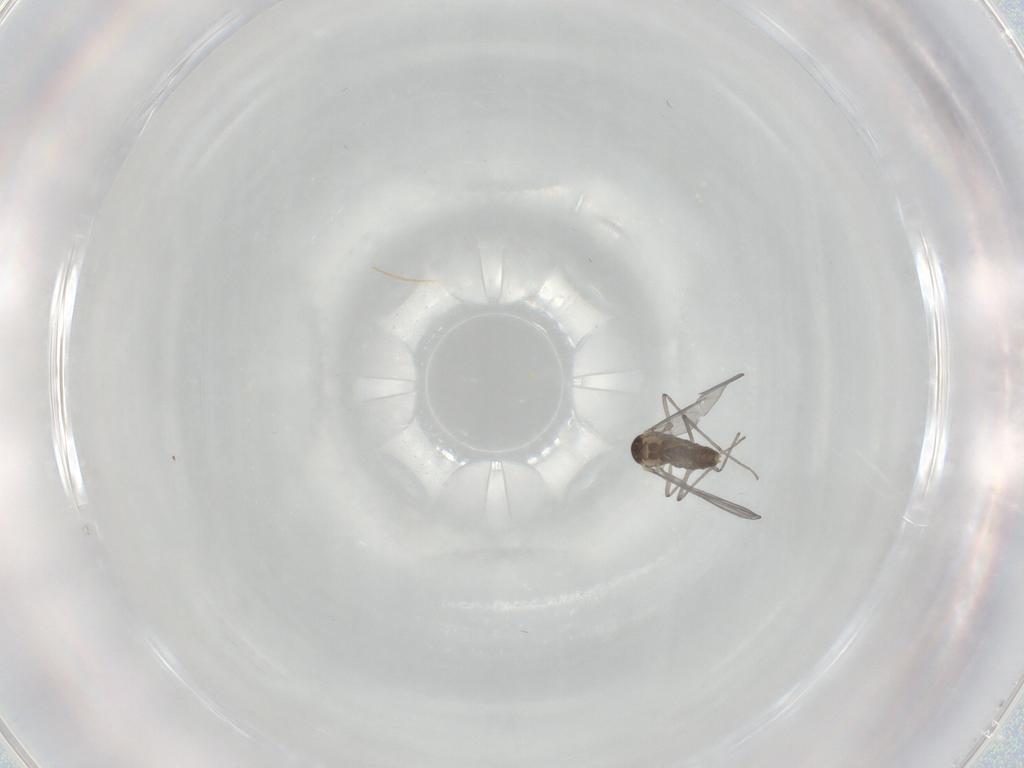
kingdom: Animalia
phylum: Arthropoda
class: Insecta
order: Diptera
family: Chironomidae
